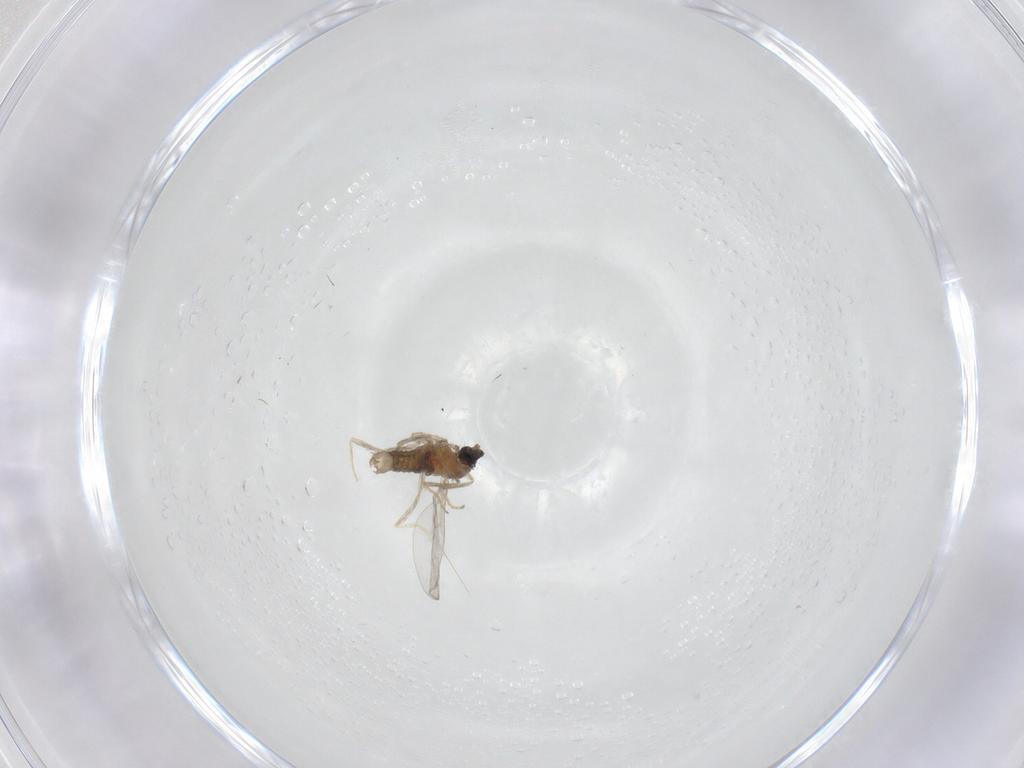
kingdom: Animalia
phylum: Arthropoda
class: Insecta
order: Diptera
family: Cecidomyiidae
